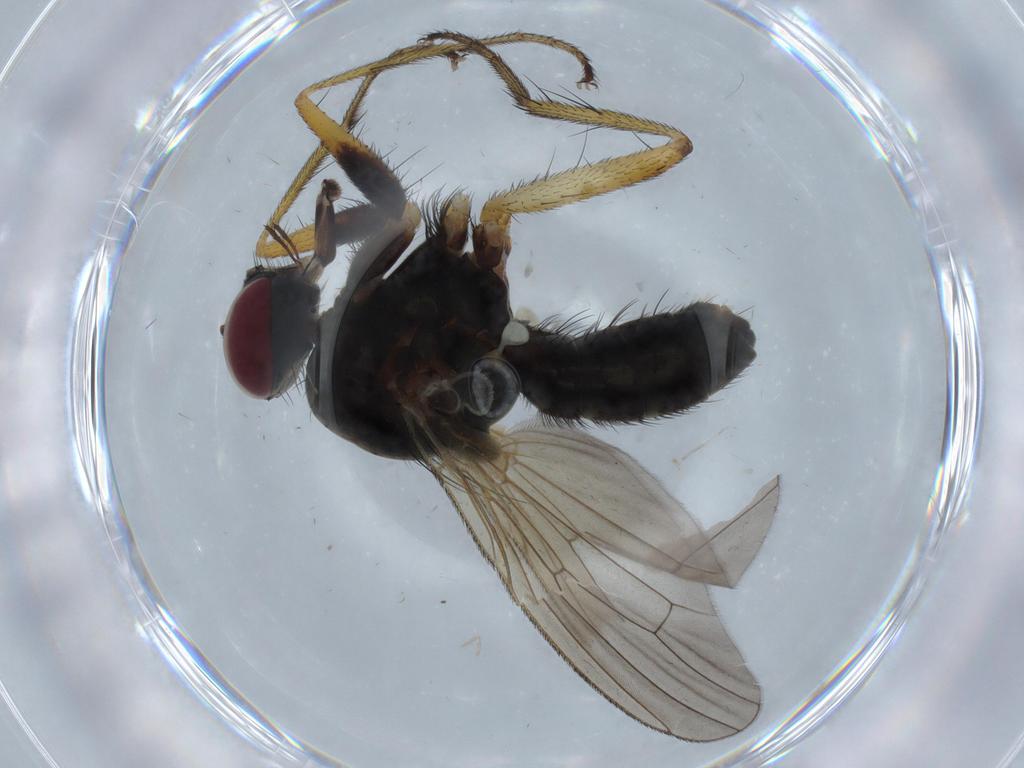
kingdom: Animalia
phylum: Arthropoda
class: Insecta
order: Diptera
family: Muscidae
